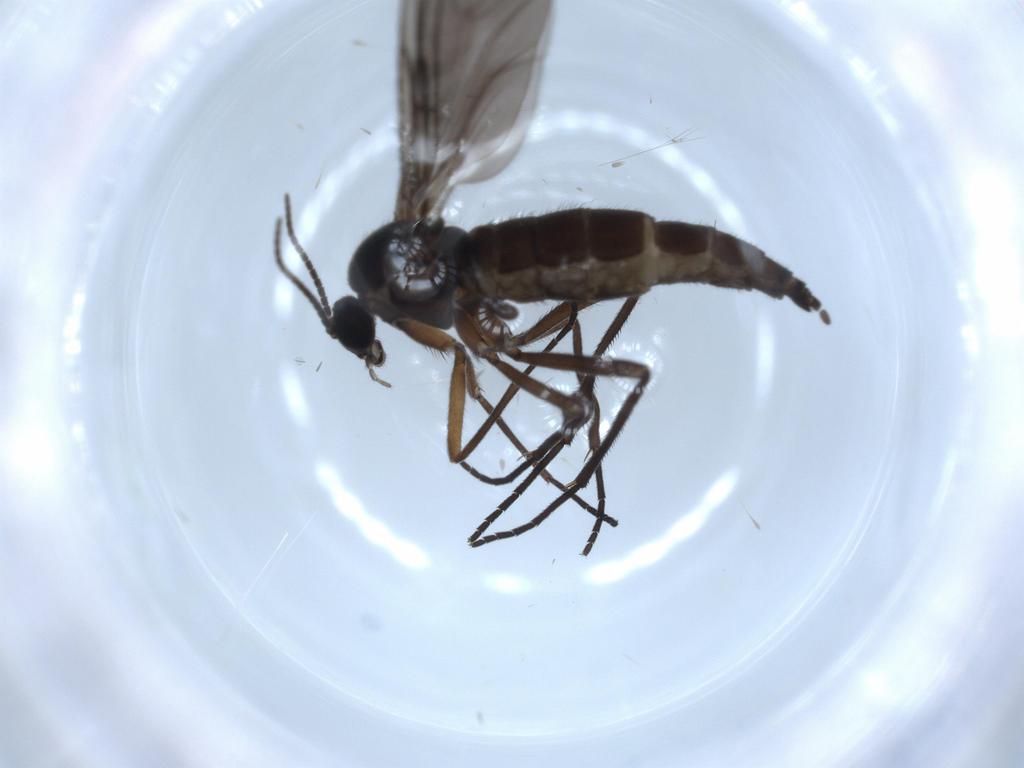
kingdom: Animalia
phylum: Arthropoda
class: Insecta
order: Diptera
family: Sciaridae
